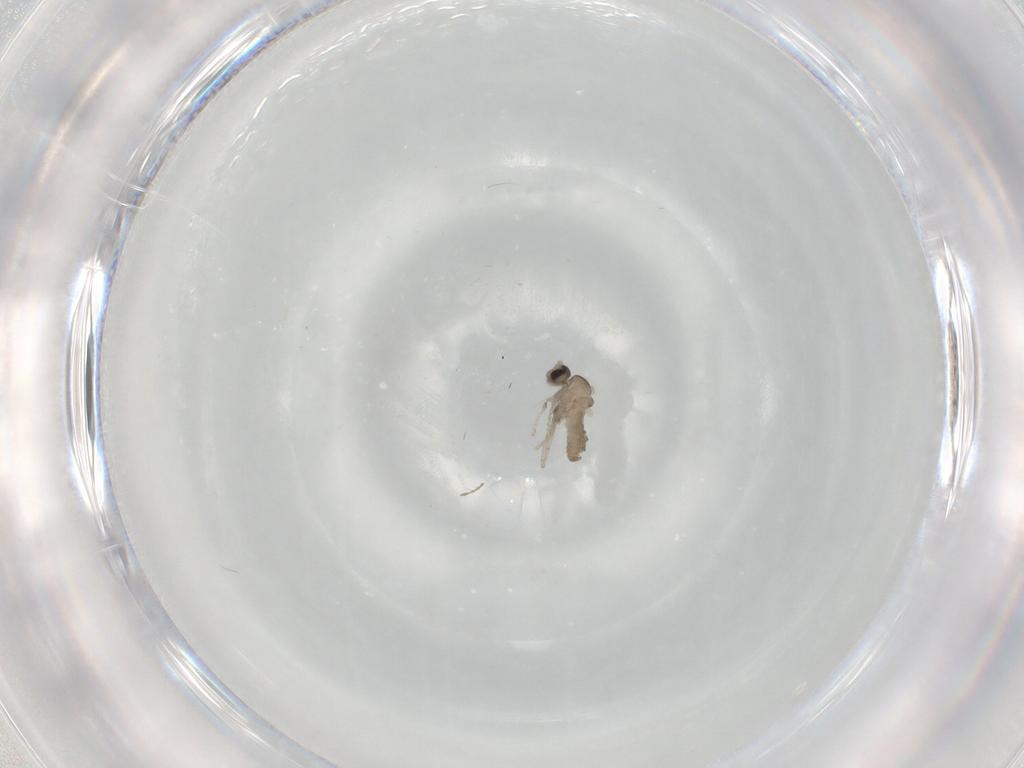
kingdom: Animalia
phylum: Arthropoda
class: Insecta
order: Diptera
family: Cecidomyiidae
